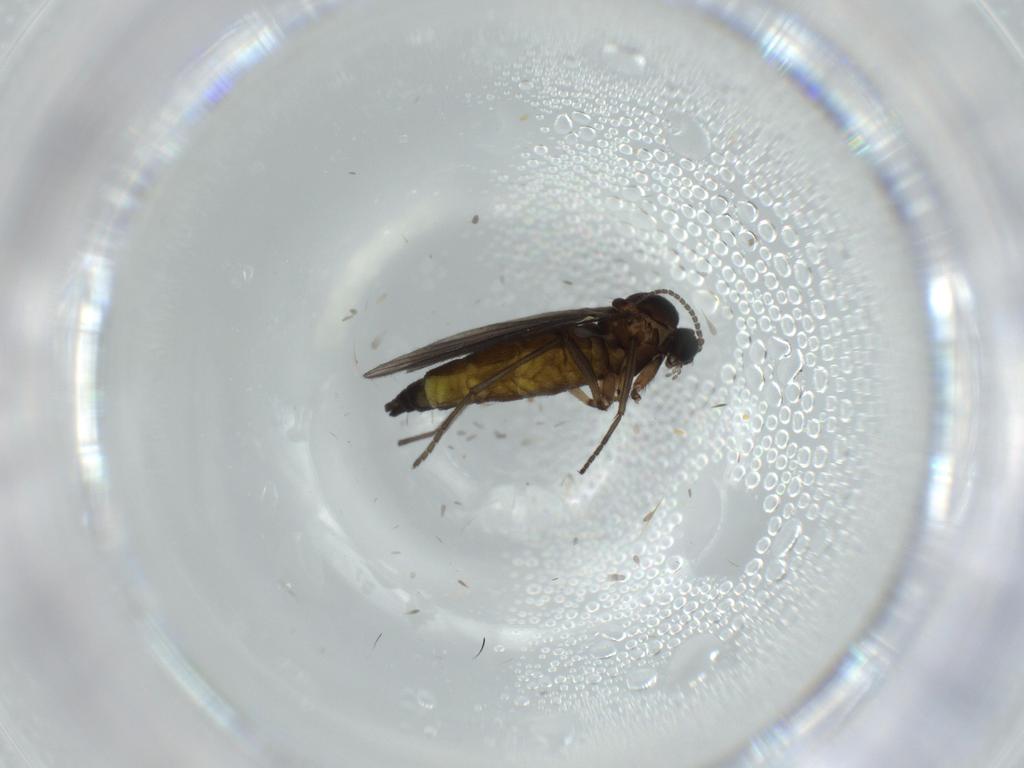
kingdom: Animalia
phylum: Arthropoda
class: Insecta
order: Diptera
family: Sciaridae
